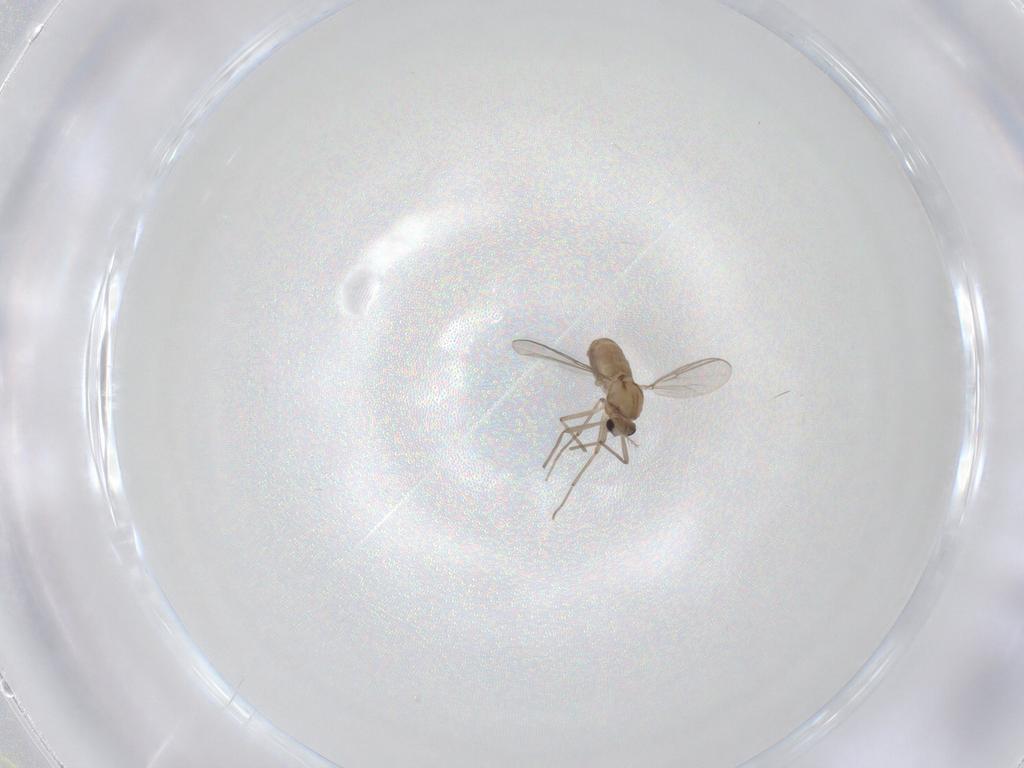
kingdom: Animalia
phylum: Arthropoda
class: Insecta
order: Diptera
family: Chironomidae
